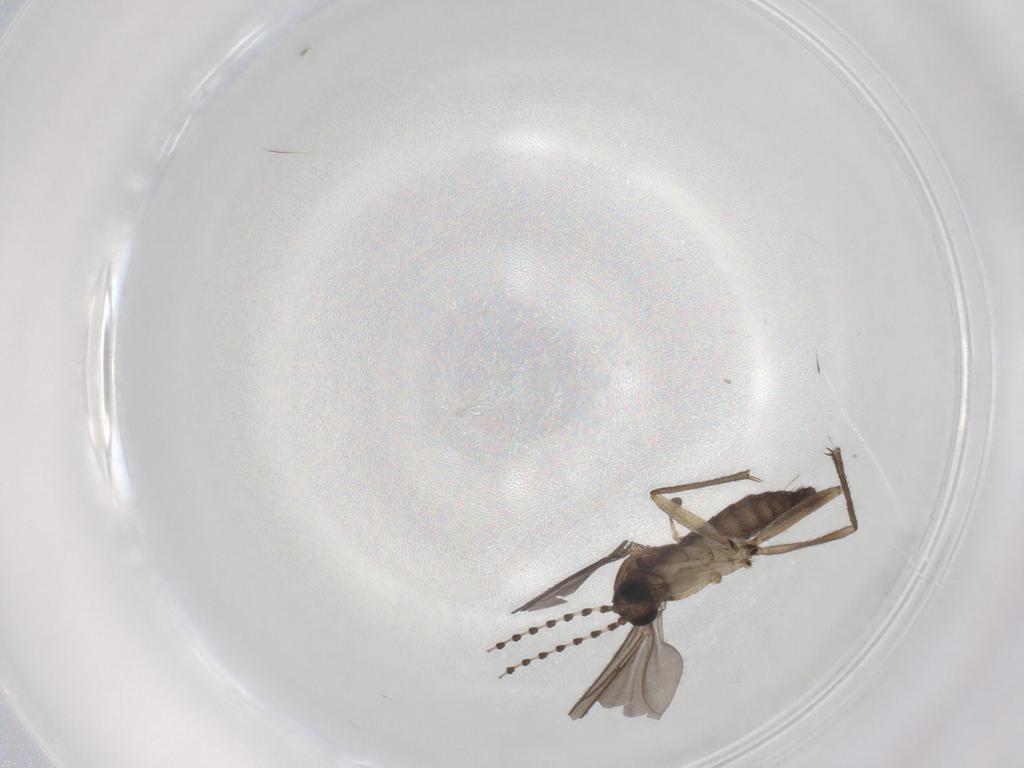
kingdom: Animalia
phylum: Arthropoda
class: Insecta
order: Diptera
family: Sciaridae
